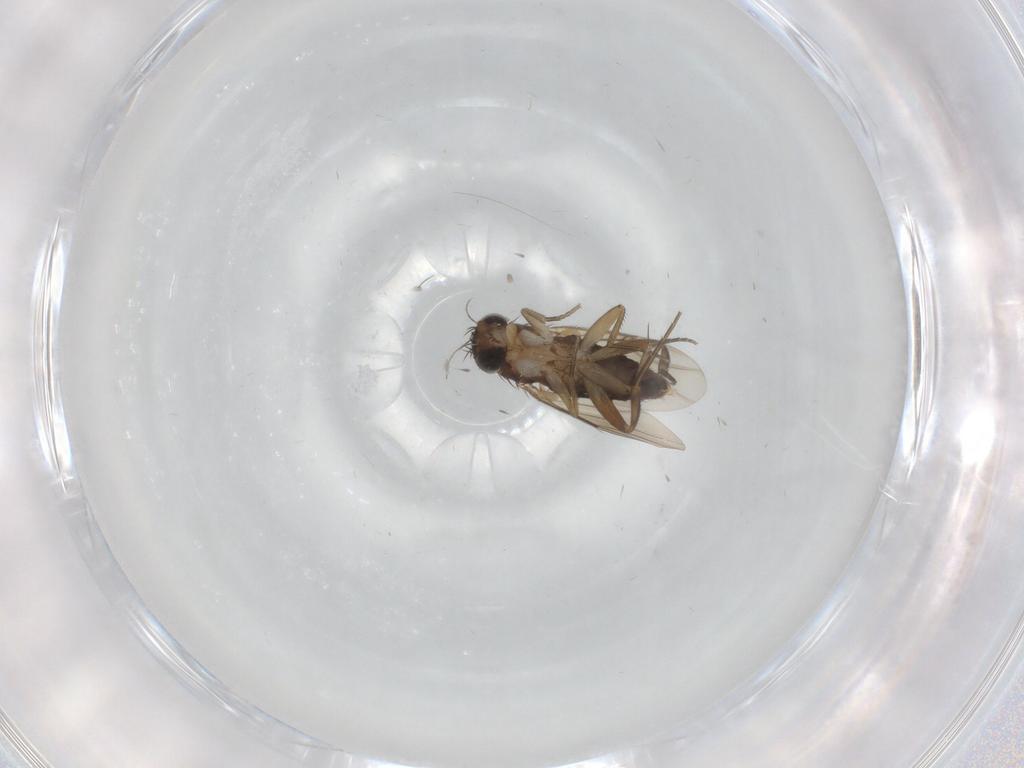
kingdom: Animalia
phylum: Arthropoda
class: Insecta
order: Diptera
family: Phoridae
